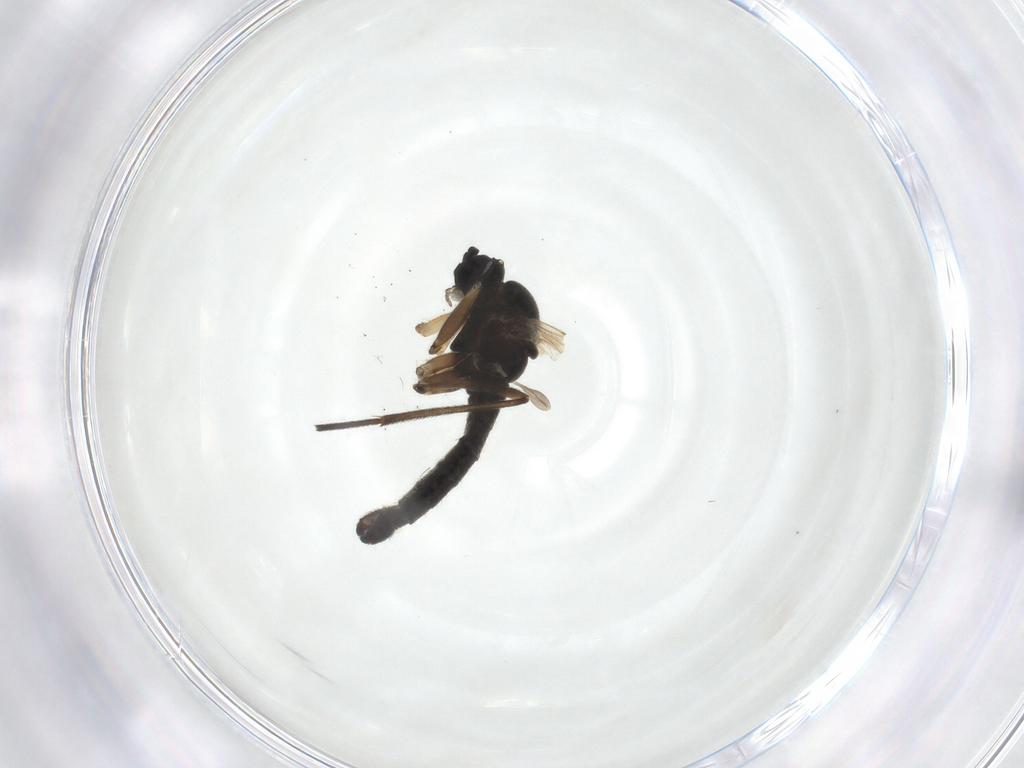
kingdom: Animalia
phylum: Arthropoda
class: Insecta
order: Diptera
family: Sciaridae
